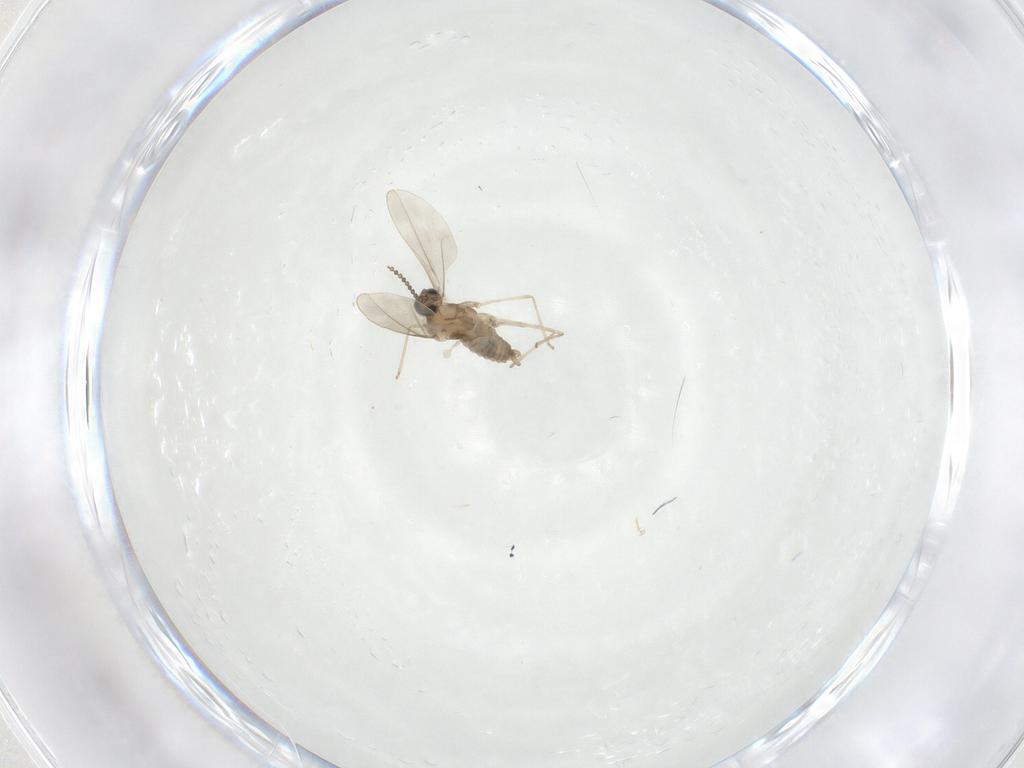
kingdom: Animalia
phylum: Arthropoda
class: Insecta
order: Diptera
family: Cecidomyiidae
